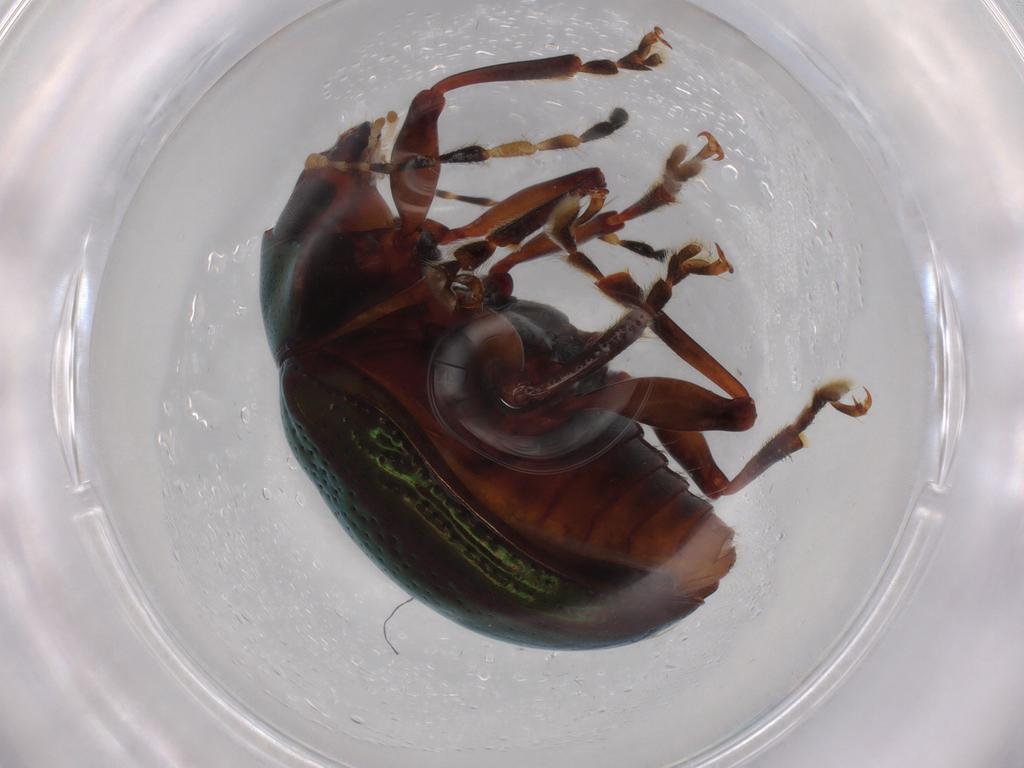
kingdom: Animalia
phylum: Arthropoda
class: Insecta
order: Coleoptera
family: Chrysomelidae
